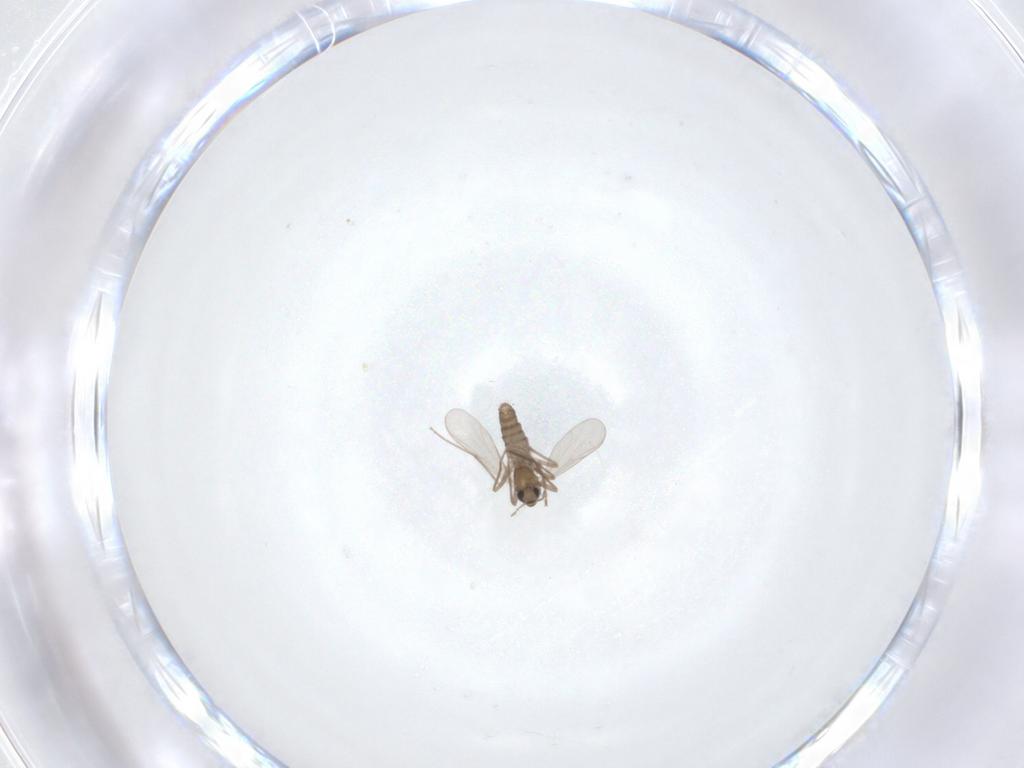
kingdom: Animalia
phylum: Arthropoda
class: Insecta
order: Diptera
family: Chironomidae
